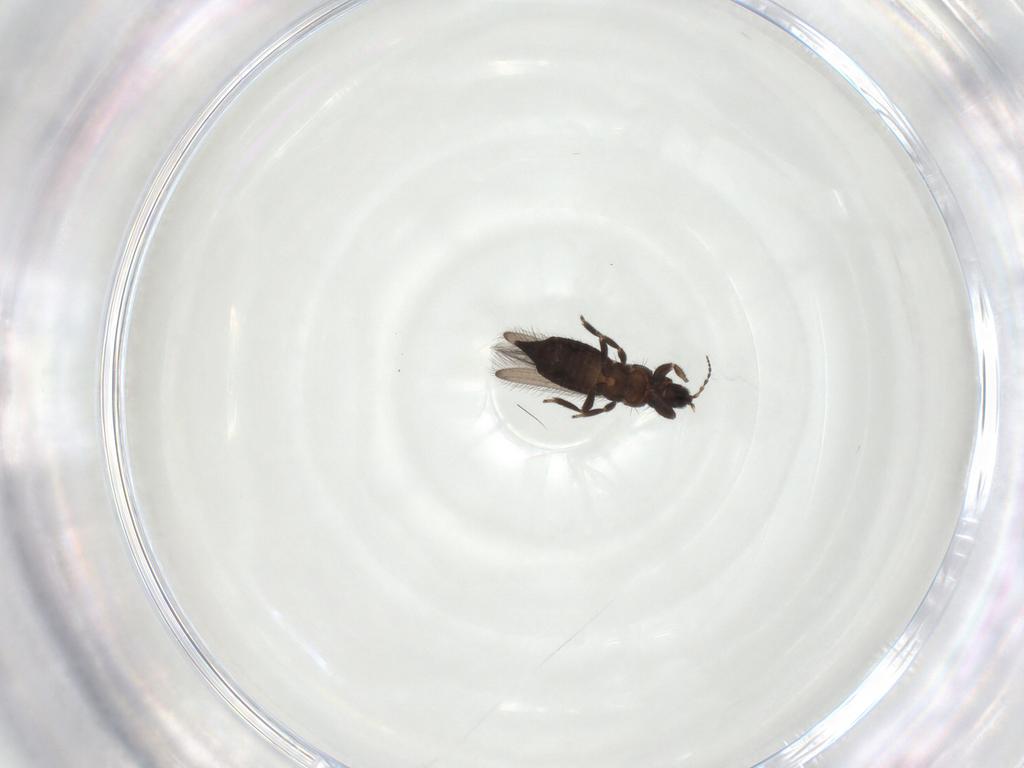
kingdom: Animalia
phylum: Arthropoda
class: Insecta
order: Thysanoptera
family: Melanthripidae
